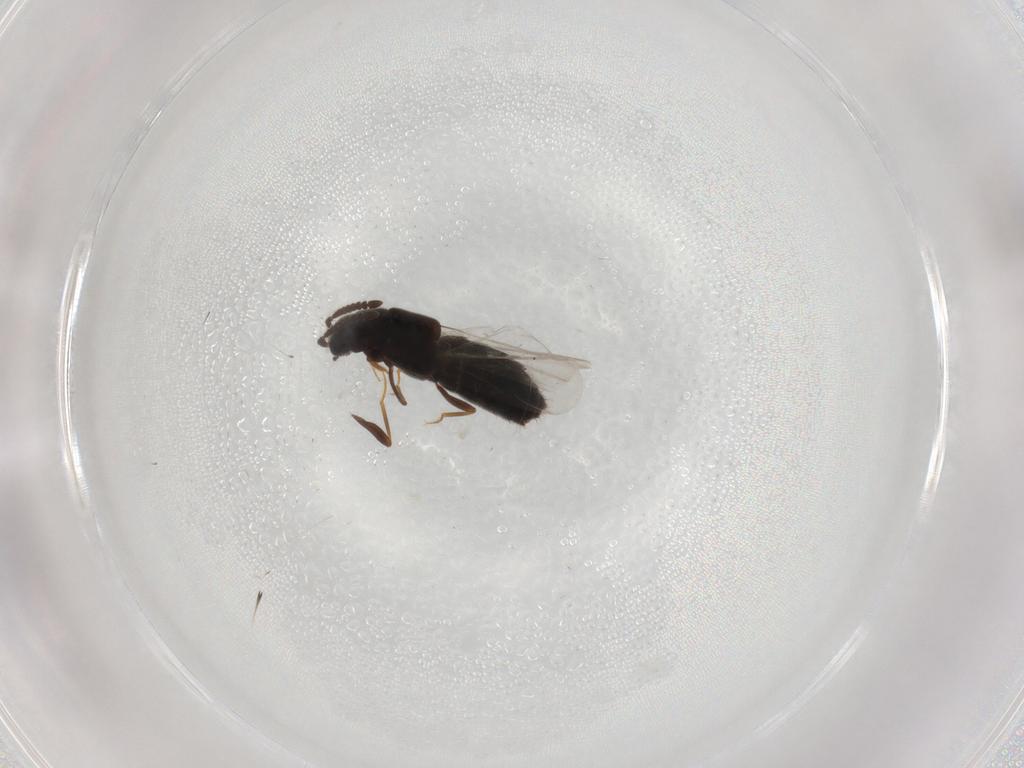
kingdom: Animalia
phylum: Arthropoda
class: Insecta
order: Coleoptera
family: Staphylinidae
